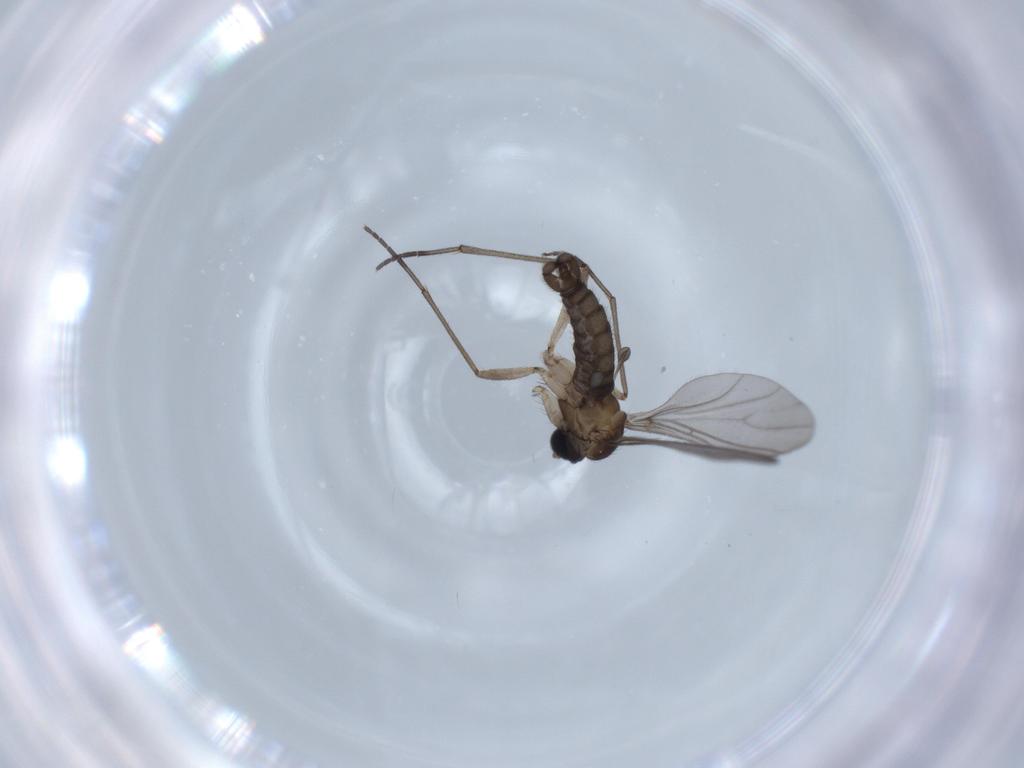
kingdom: Animalia
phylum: Arthropoda
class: Insecta
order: Diptera
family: Sciaridae
